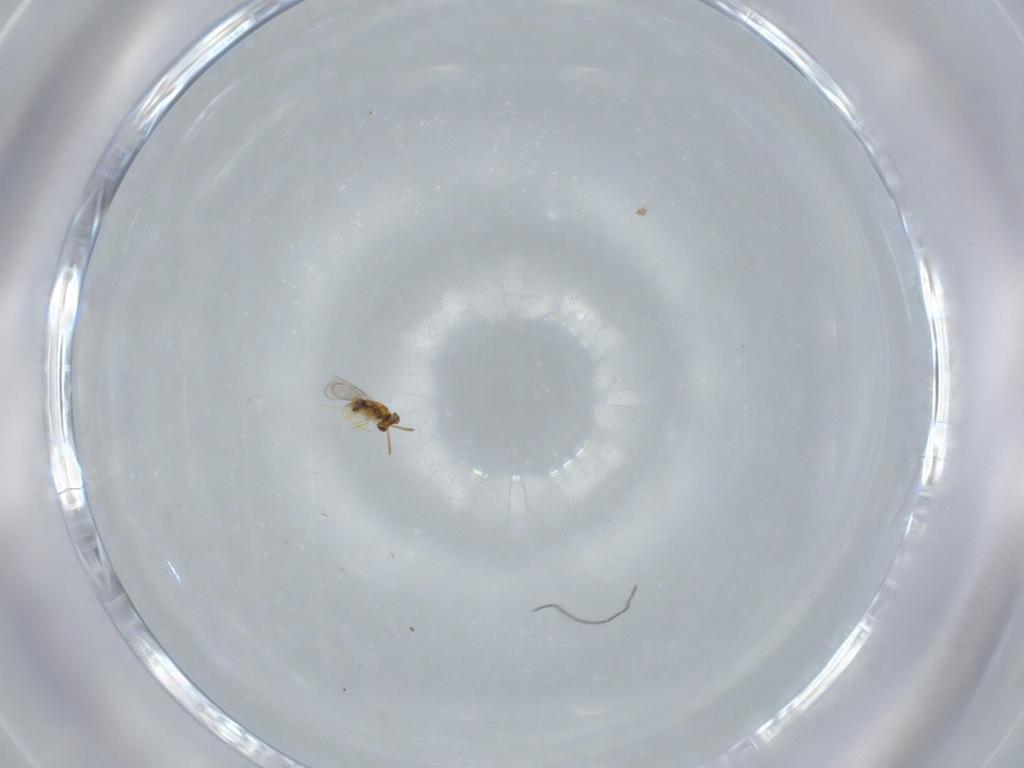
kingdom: Animalia
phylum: Arthropoda
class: Insecta
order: Hymenoptera
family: Aphelinidae
